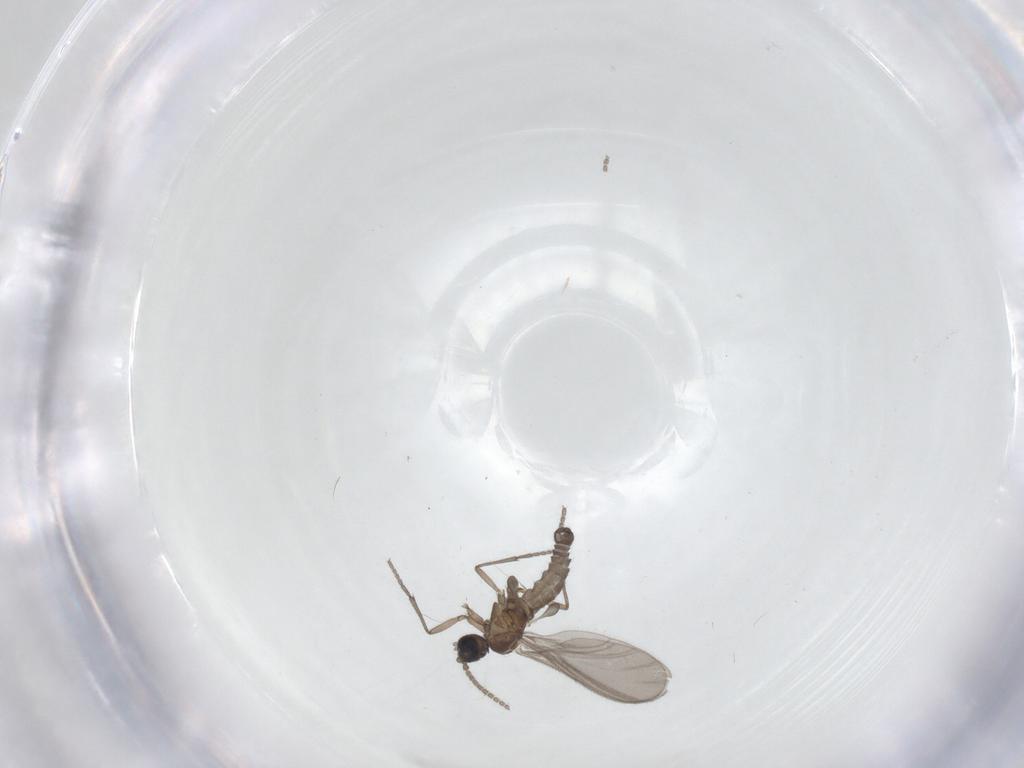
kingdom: Animalia
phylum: Arthropoda
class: Insecta
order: Diptera
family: Sciaridae
